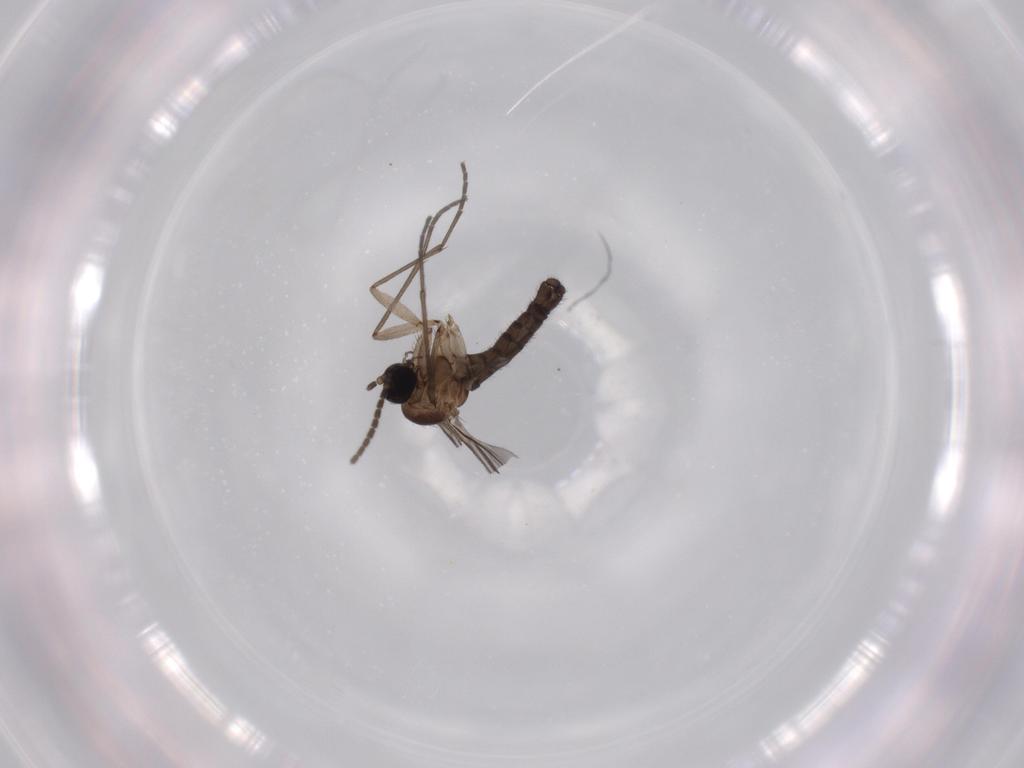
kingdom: Animalia
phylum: Arthropoda
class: Insecta
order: Diptera
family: Sciaridae
